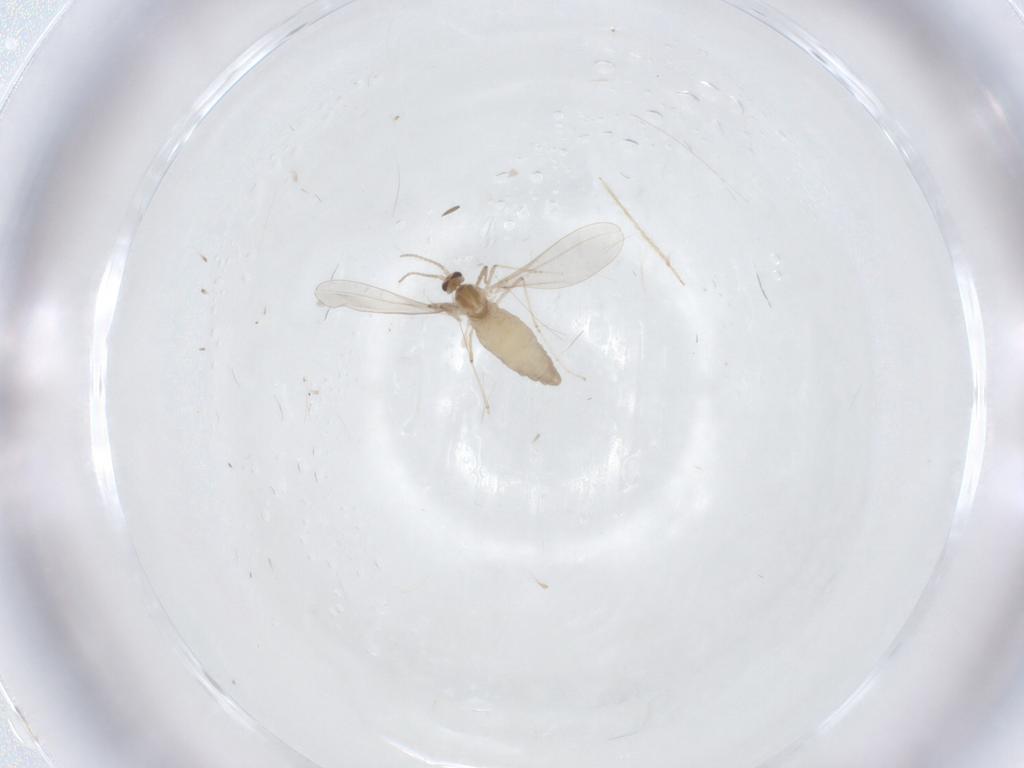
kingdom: Animalia
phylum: Arthropoda
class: Insecta
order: Diptera
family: Cecidomyiidae
